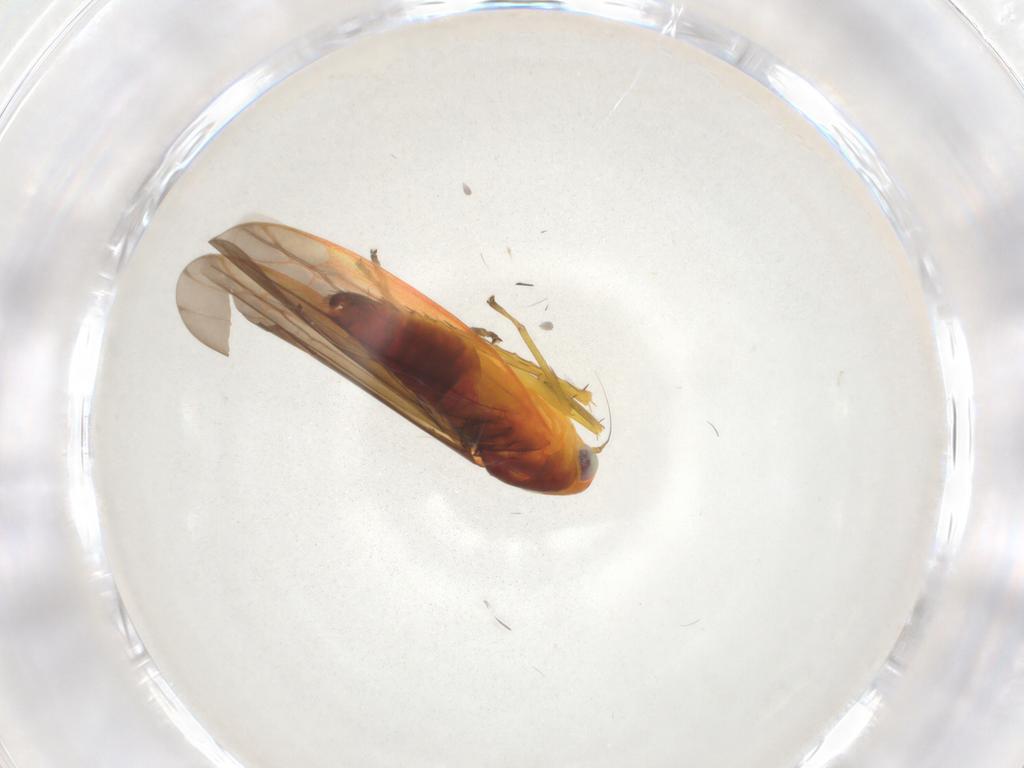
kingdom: Animalia
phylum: Arthropoda
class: Insecta
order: Hemiptera
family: Cicadellidae
